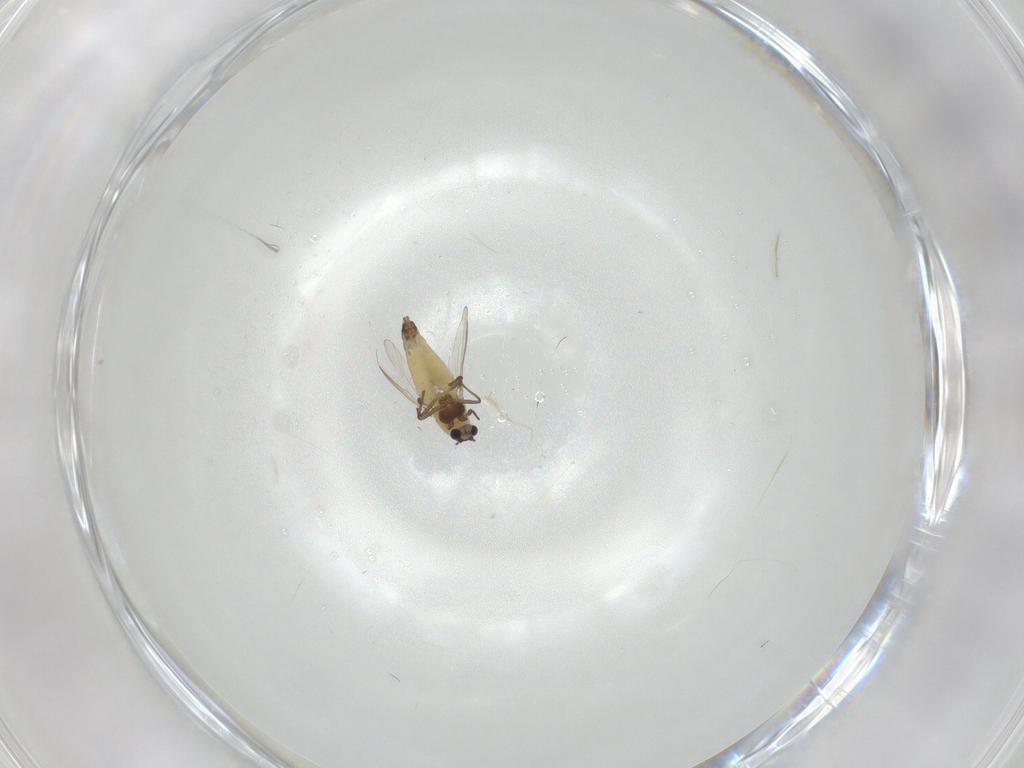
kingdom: Animalia
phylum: Arthropoda
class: Insecta
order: Diptera
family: Chironomidae
